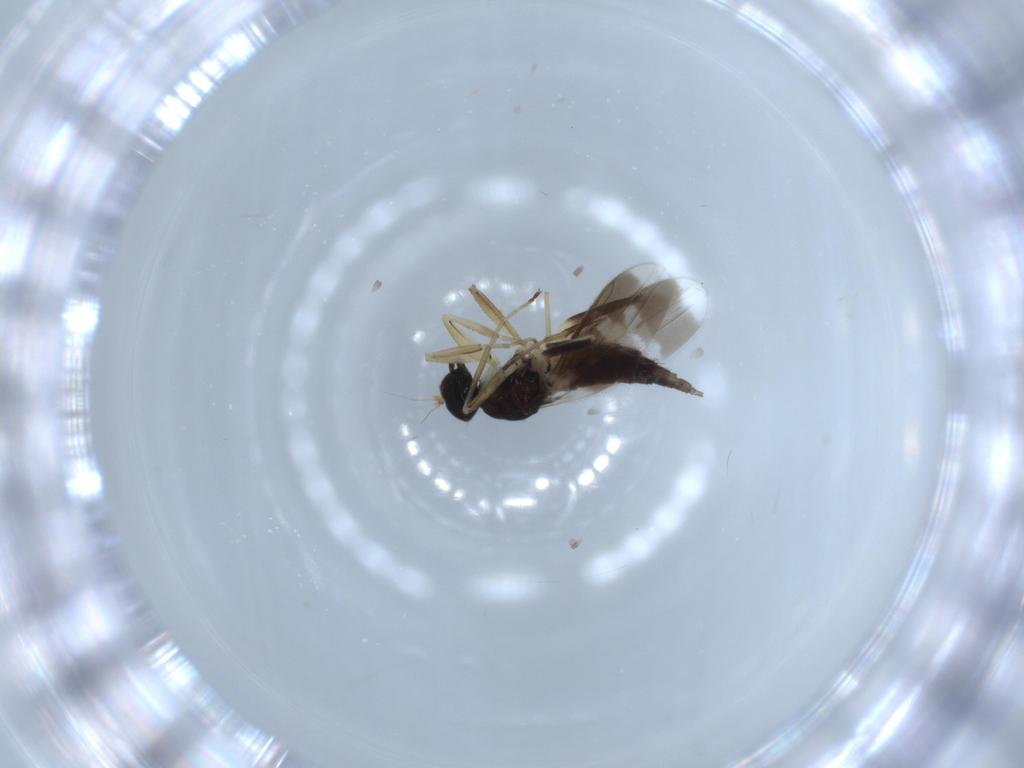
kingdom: Animalia
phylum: Arthropoda
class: Insecta
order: Diptera
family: Hybotidae
